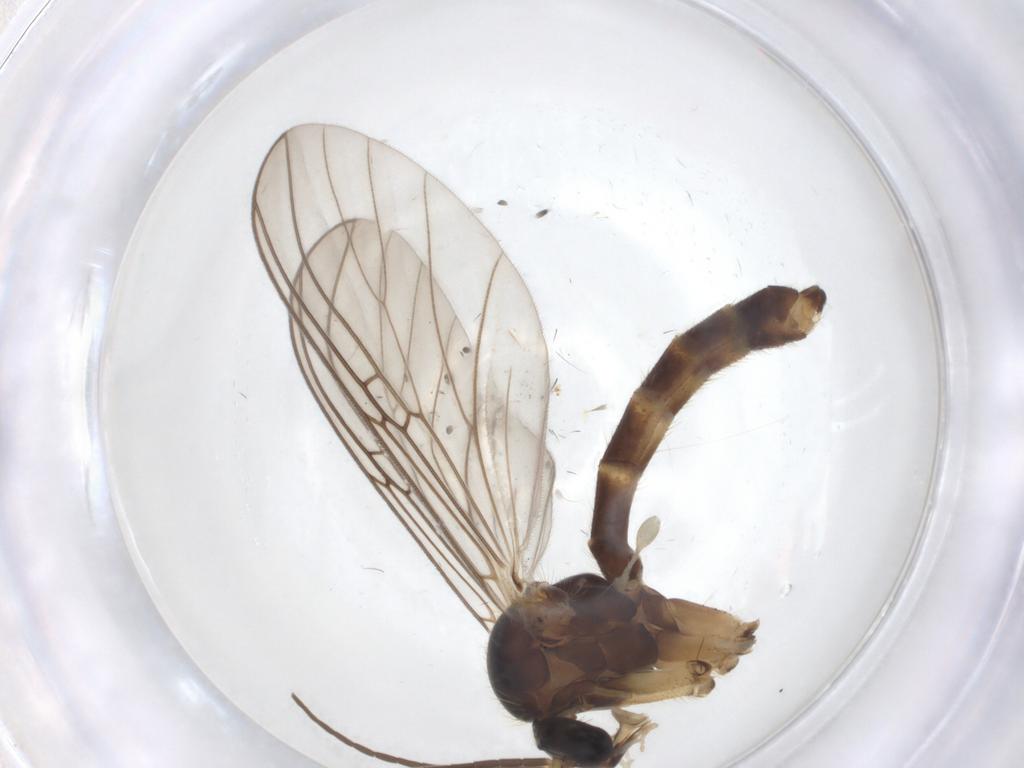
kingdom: Animalia
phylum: Arthropoda
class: Insecta
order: Diptera
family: Mycetophilidae
